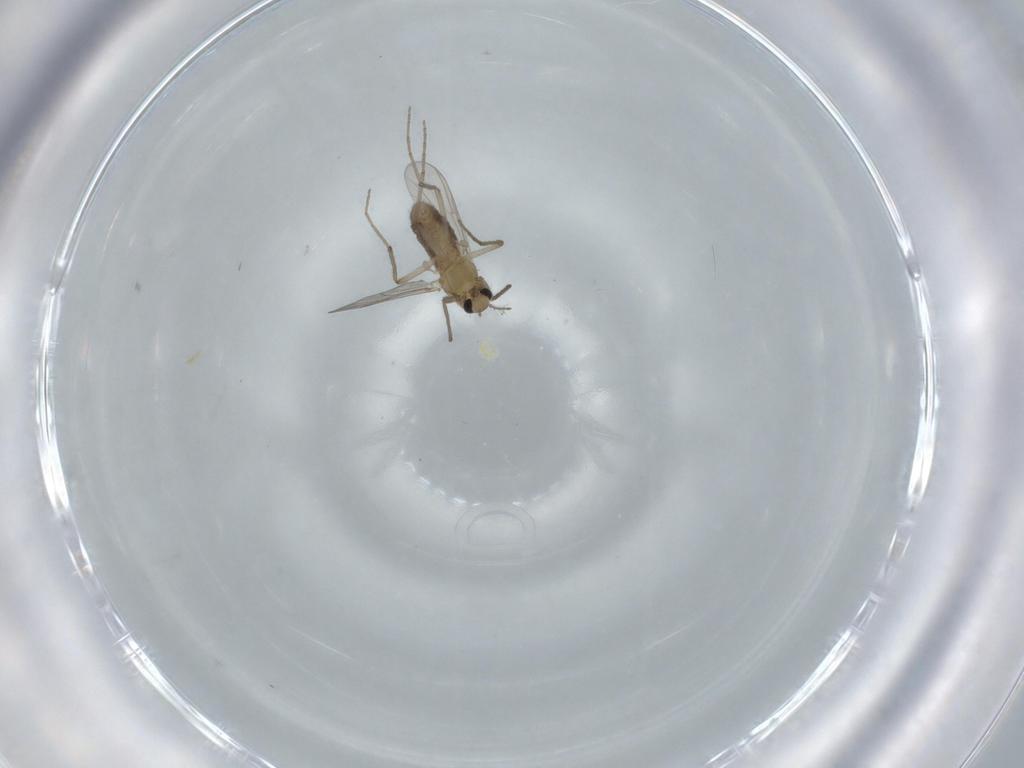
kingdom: Animalia
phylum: Arthropoda
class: Insecta
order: Diptera
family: Chironomidae
